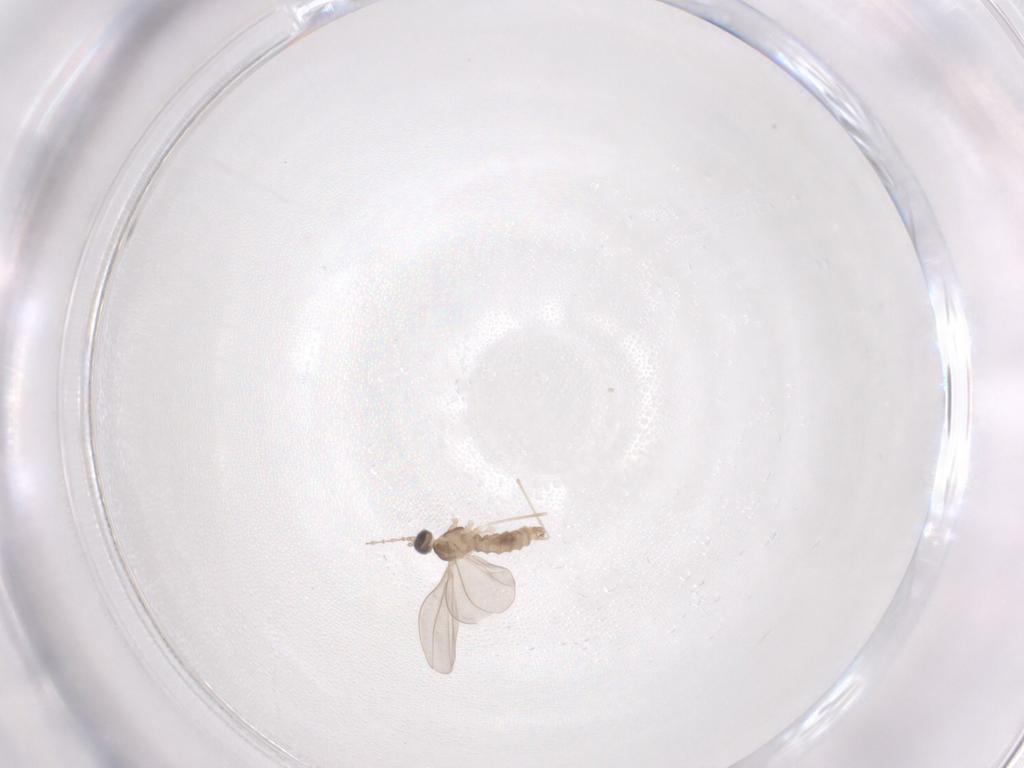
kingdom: Animalia
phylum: Arthropoda
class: Insecta
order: Diptera
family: Cecidomyiidae
